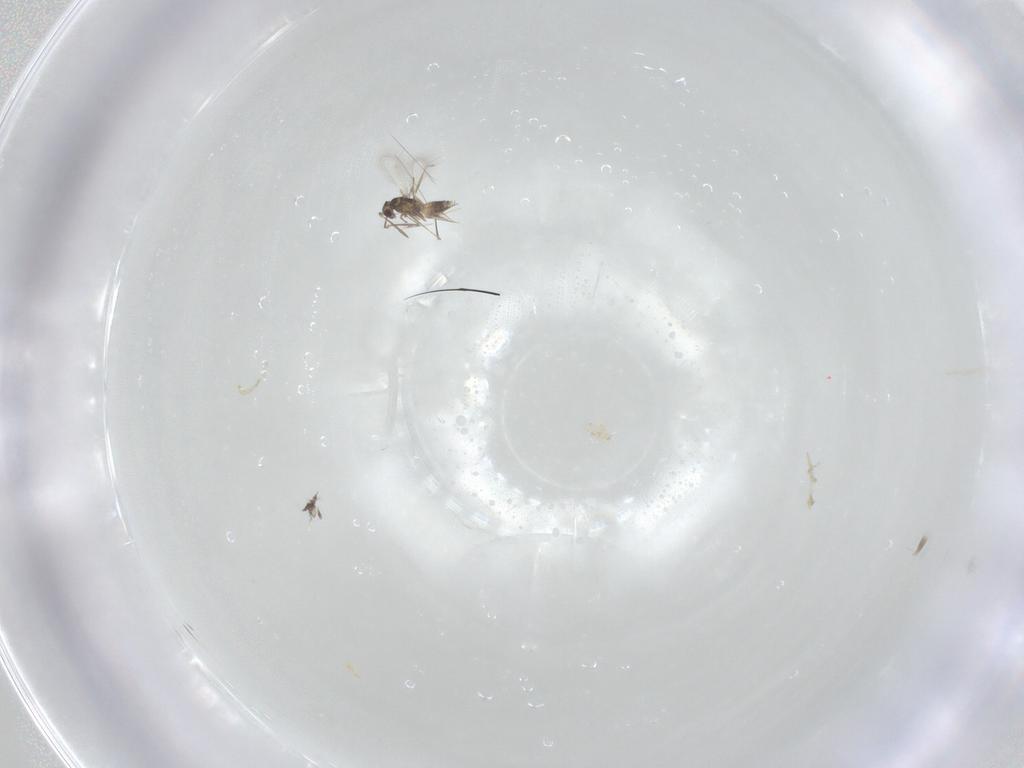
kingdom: Animalia
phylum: Arthropoda
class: Insecta
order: Hymenoptera
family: Mymaridae
